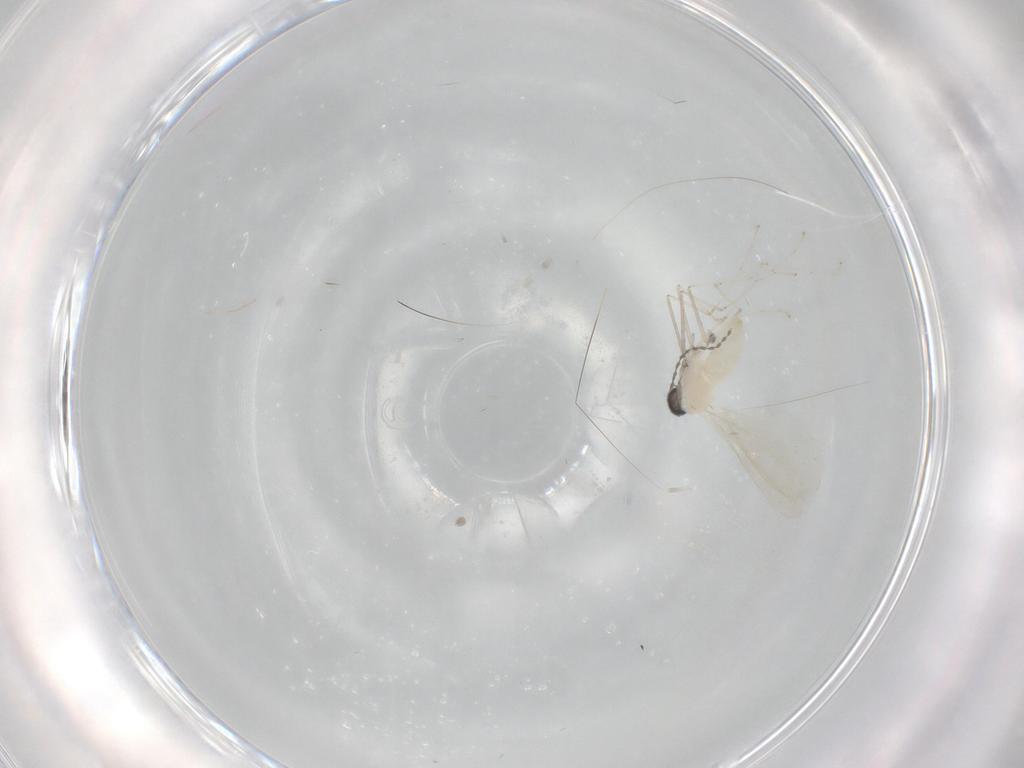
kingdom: Animalia
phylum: Arthropoda
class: Insecta
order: Diptera
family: Cecidomyiidae
